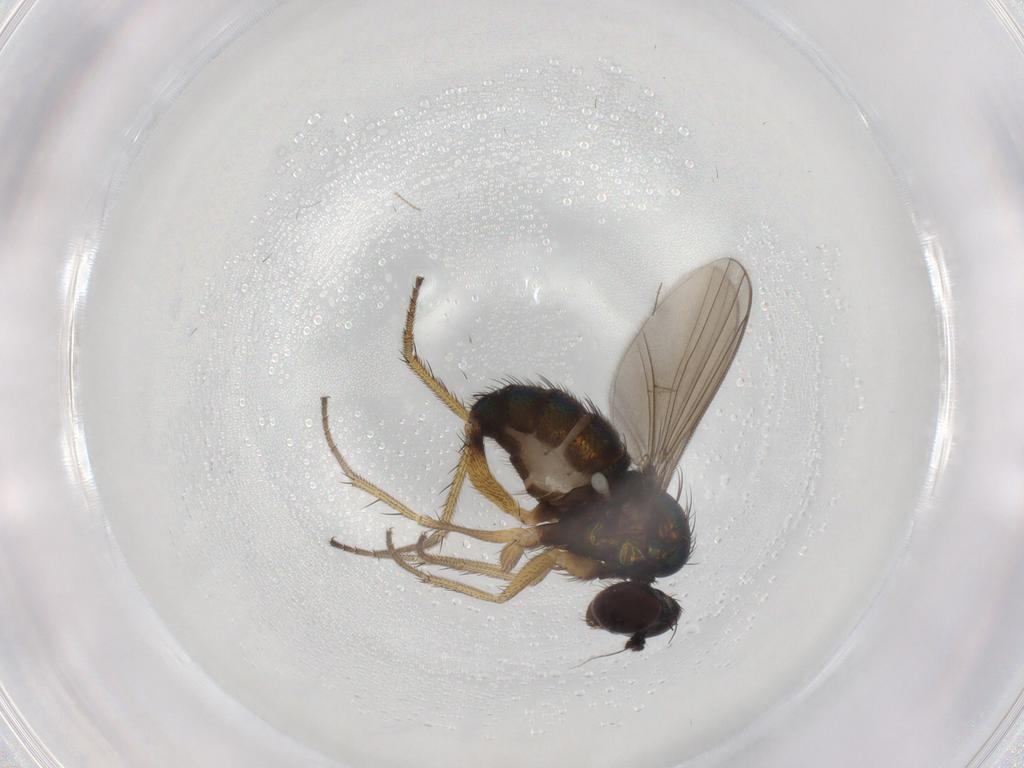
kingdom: Animalia
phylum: Arthropoda
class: Insecta
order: Diptera
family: Dolichopodidae
